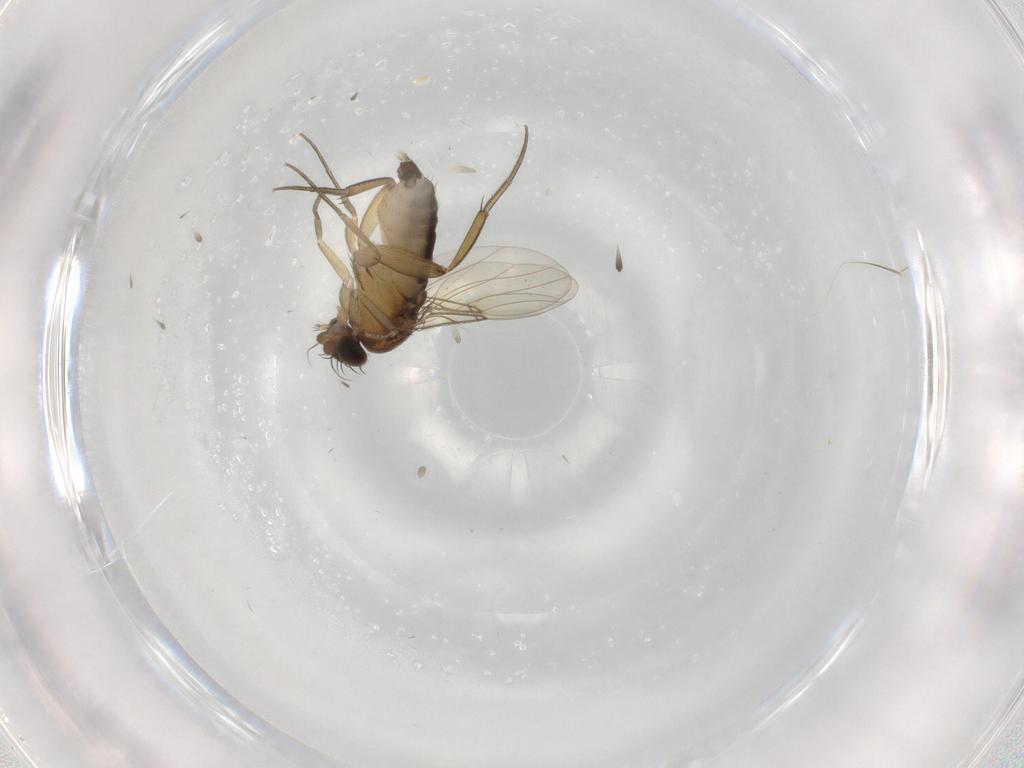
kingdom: Animalia
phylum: Arthropoda
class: Insecta
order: Diptera
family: Phoridae
